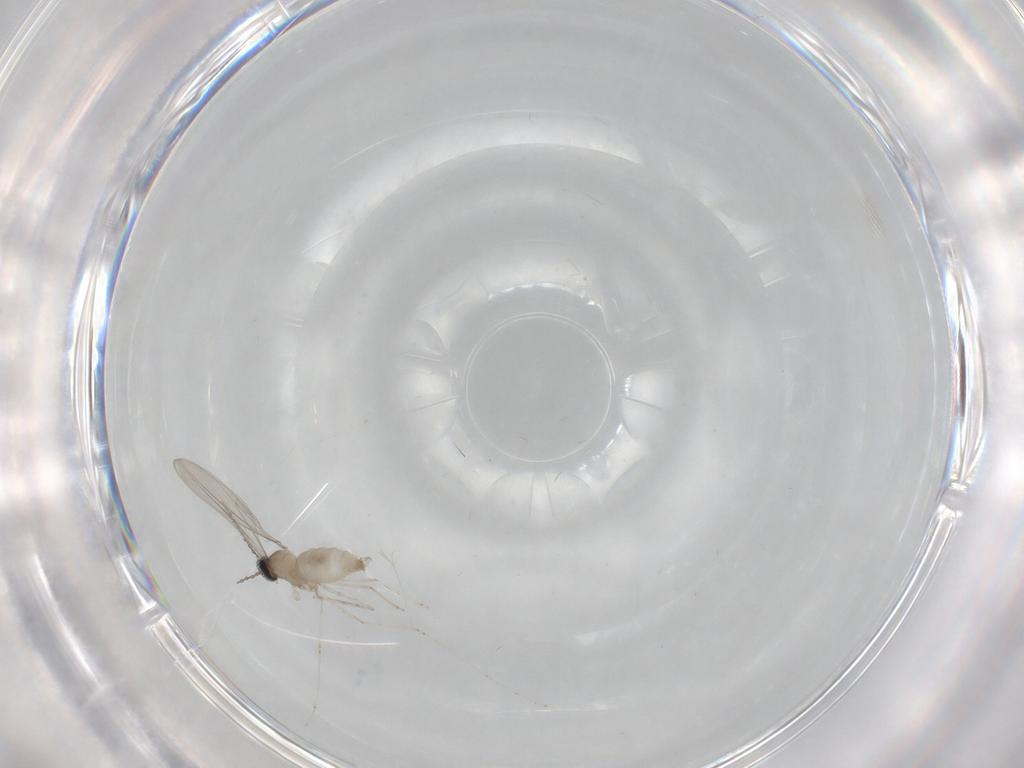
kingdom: Animalia
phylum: Arthropoda
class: Insecta
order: Diptera
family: Cecidomyiidae
